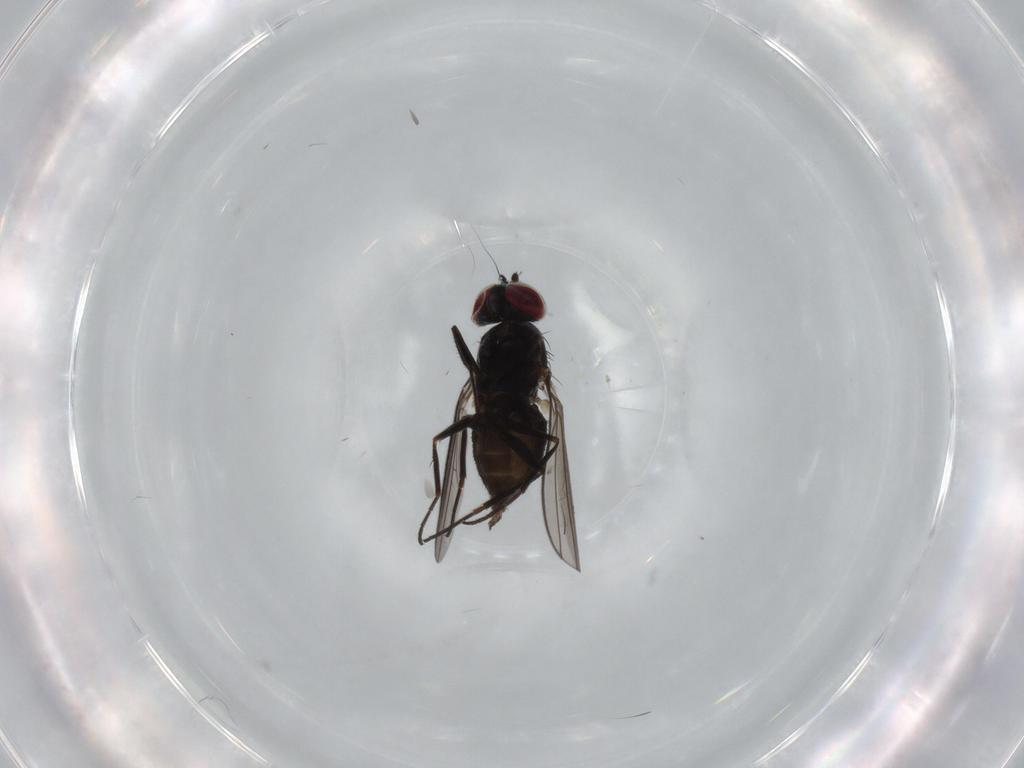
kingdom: Animalia
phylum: Arthropoda
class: Insecta
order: Diptera
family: Dolichopodidae
